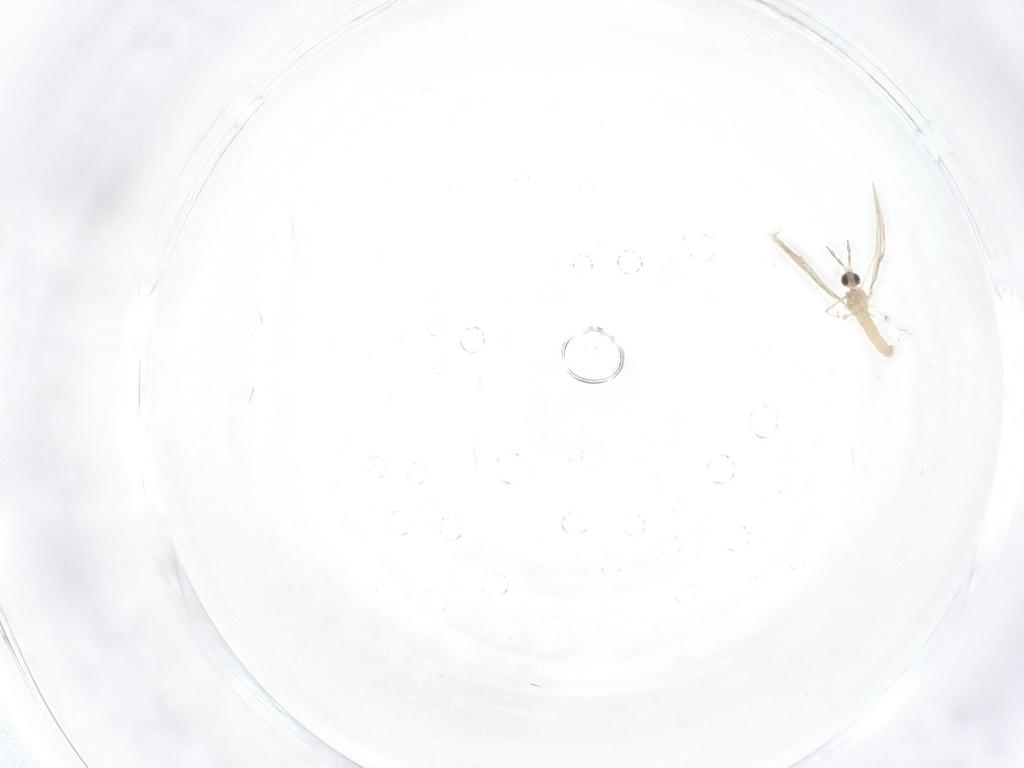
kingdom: Animalia
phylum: Arthropoda
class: Insecta
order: Diptera
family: Cecidomyiidae
